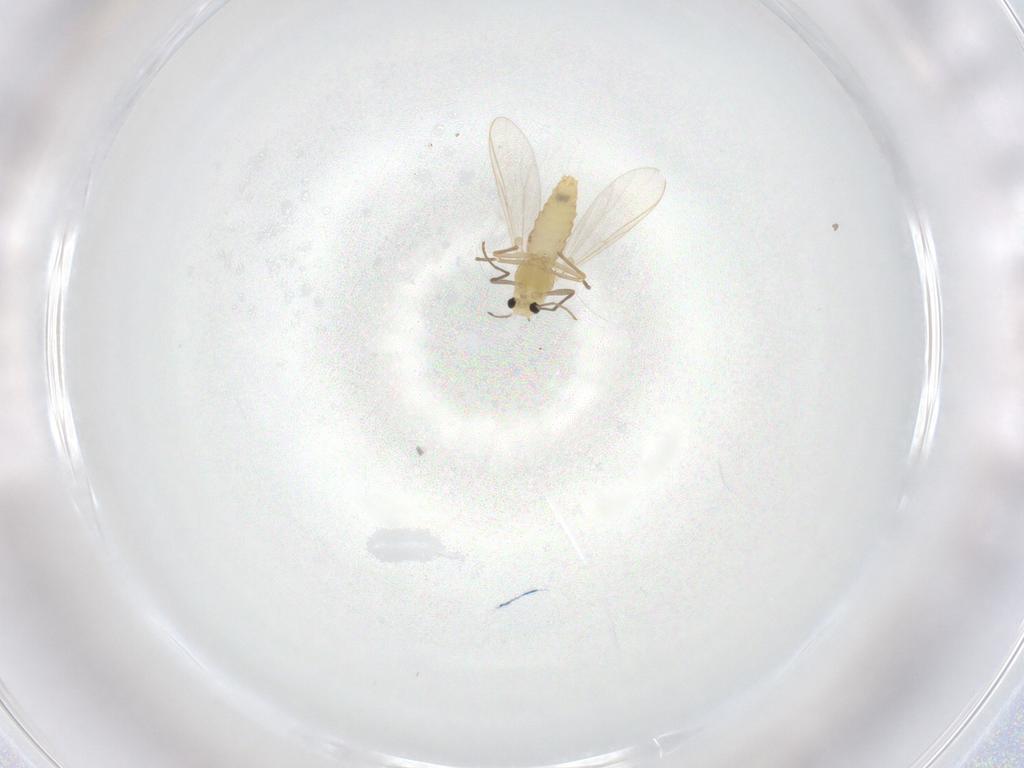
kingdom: Animalia
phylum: Arthropoda
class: Insecta
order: Diptera
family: Chironomidae
